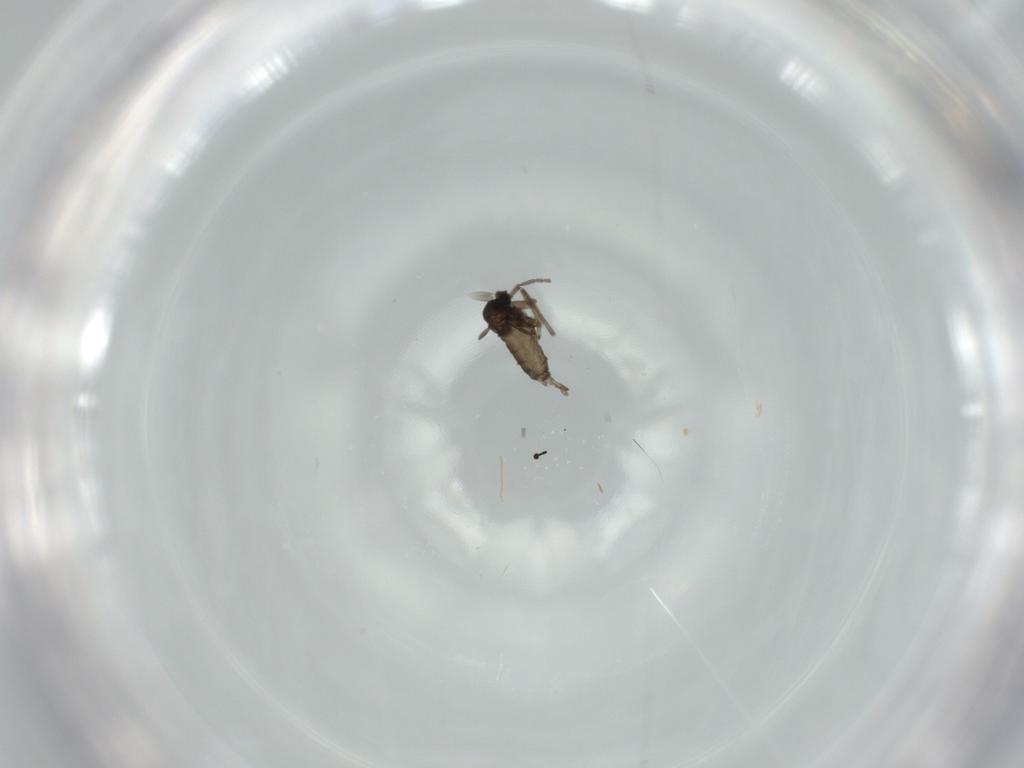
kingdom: Animalia
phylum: Arthropoda
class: Insecta
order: Diptera
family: Sciaridae
